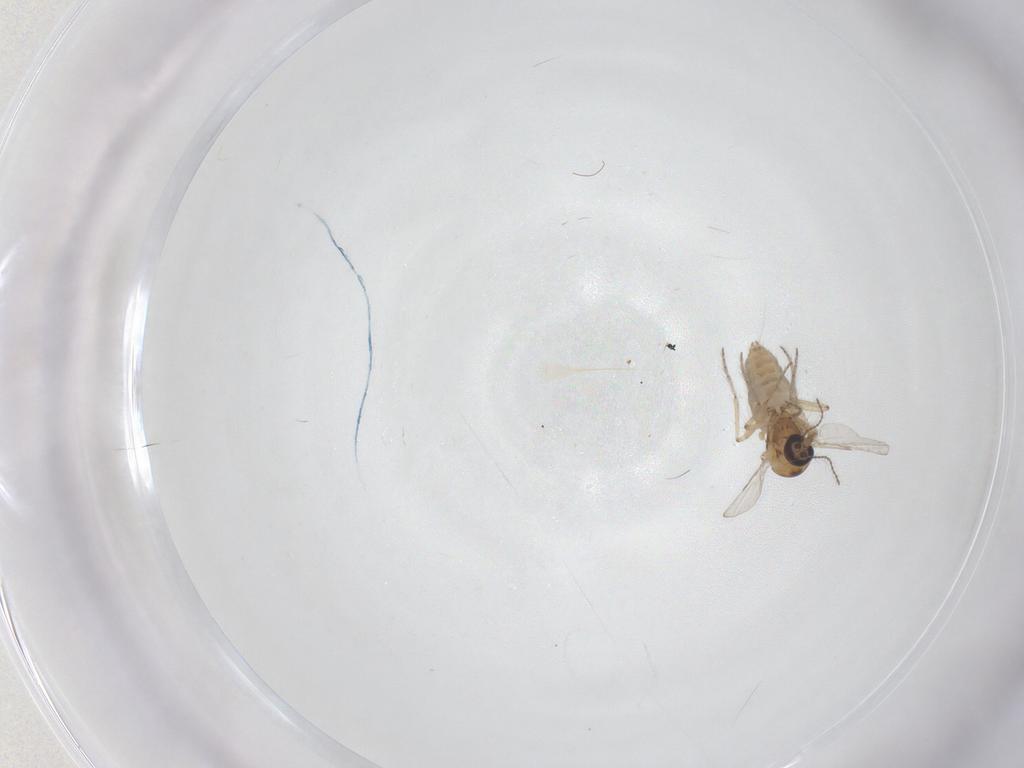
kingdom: Animalia
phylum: Arthropoda
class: Insecta
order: Diptera
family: Ceratopogonidae
